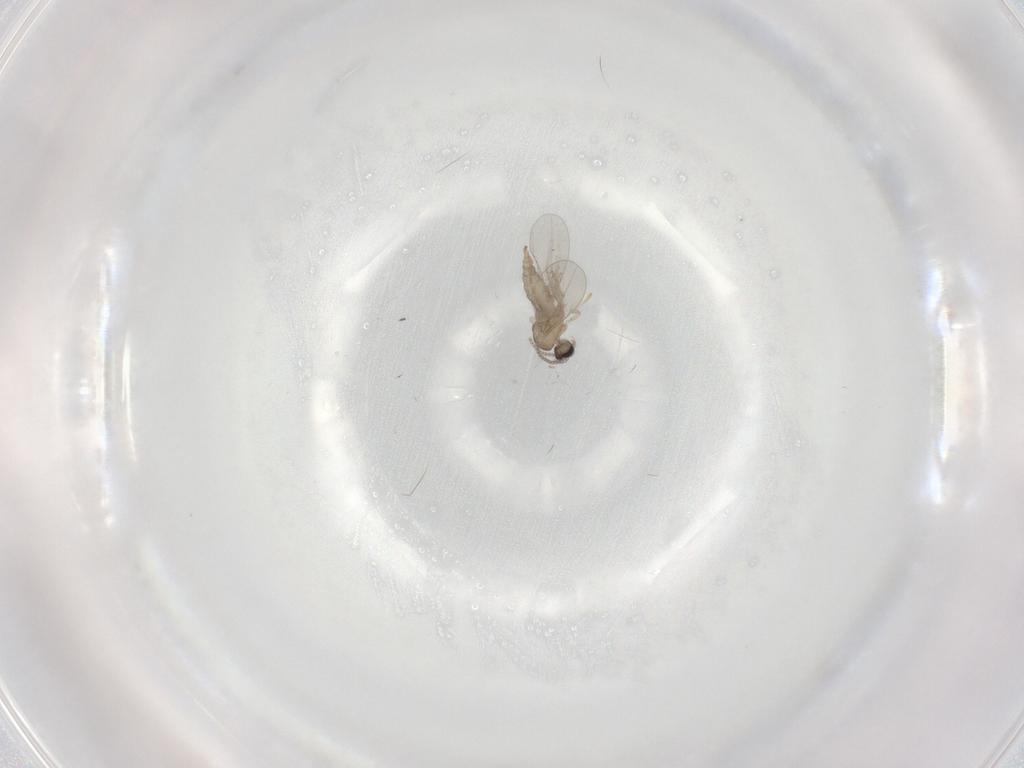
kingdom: Animalia
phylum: Arthropoda
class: Insecta
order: Diptera
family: Cecidomyiidae
